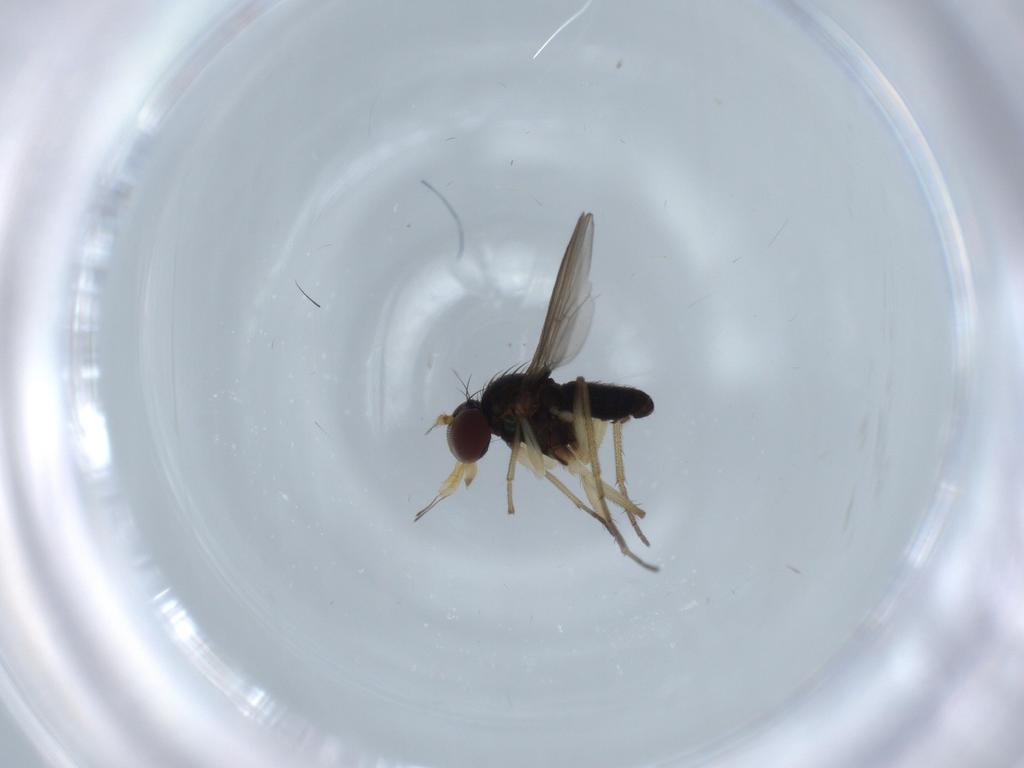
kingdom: Animalia
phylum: Arthropoda
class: Insecta
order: Diptera
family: Dolichopodidae
